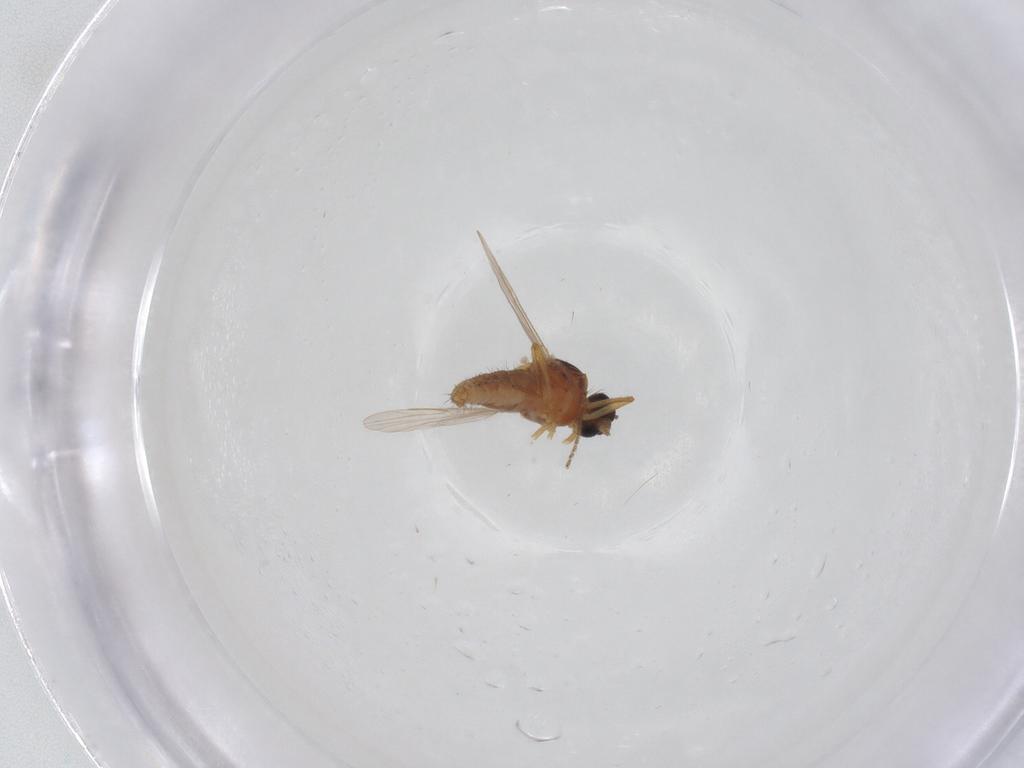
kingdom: Animalia
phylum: Arthropoda
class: Insecta
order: Diptera
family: Ceratopogonidae
